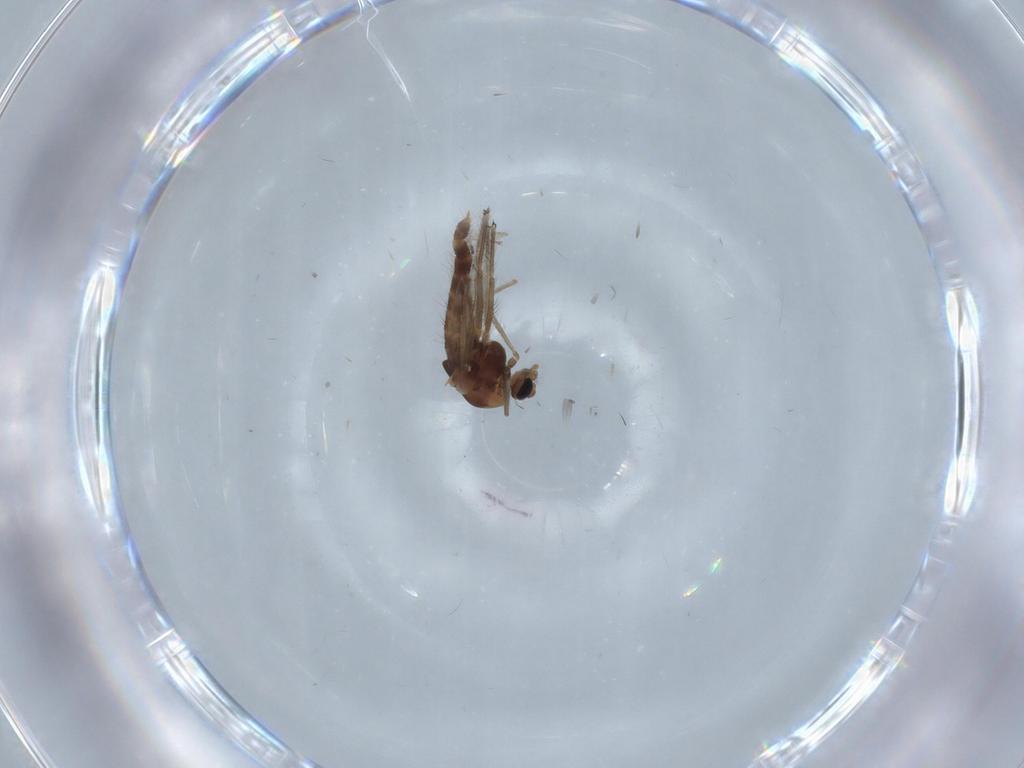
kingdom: Animalia
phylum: Arthropoda
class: Insecta
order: Diptera
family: Chironomidae
